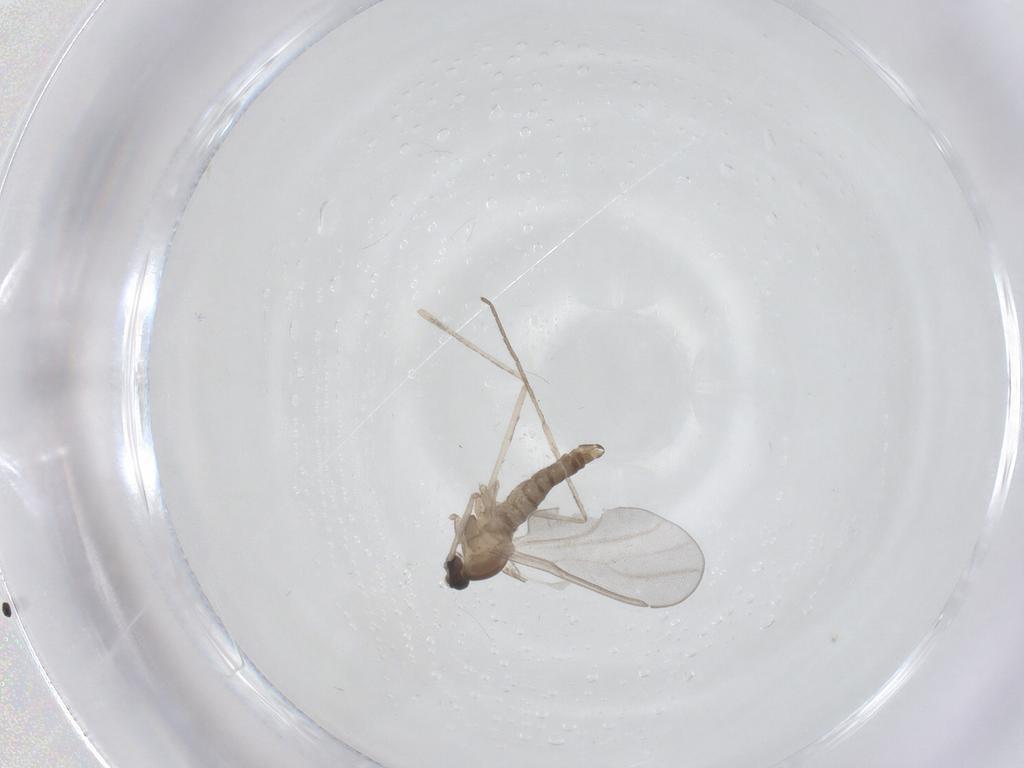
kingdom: Animalia
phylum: Arthropoda
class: Insecta
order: Diptera
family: Cecidomyiidae
